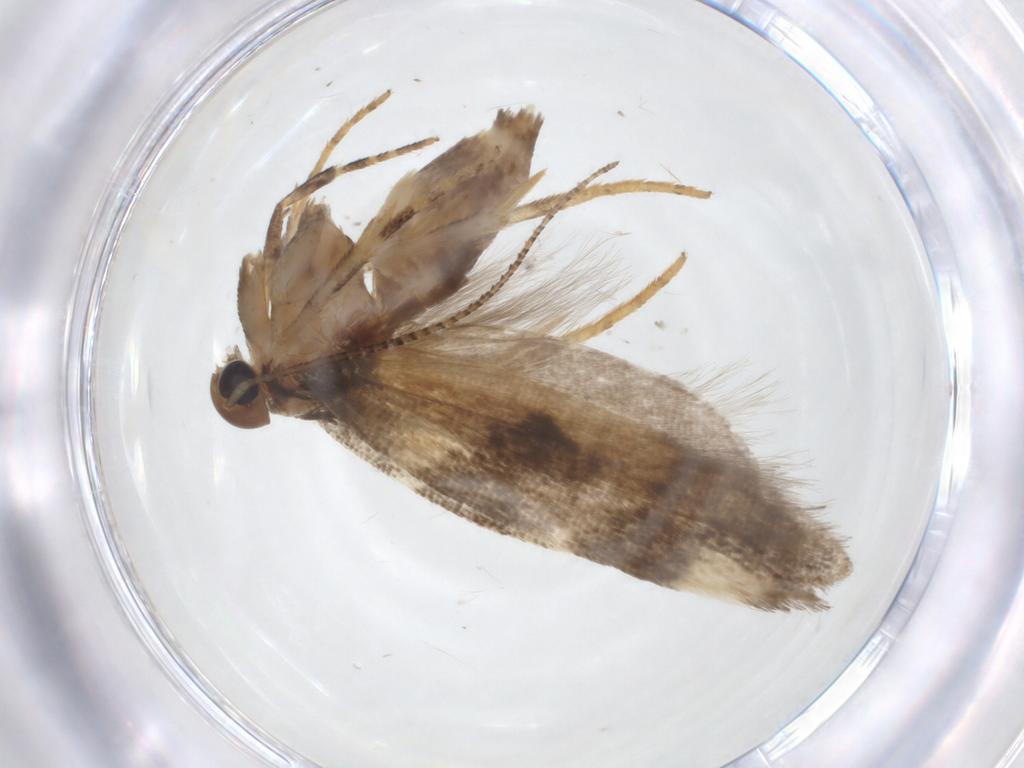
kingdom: Animalia
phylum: Arthropoda
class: Insecta
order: Lepidoptera
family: Gelechiidae
